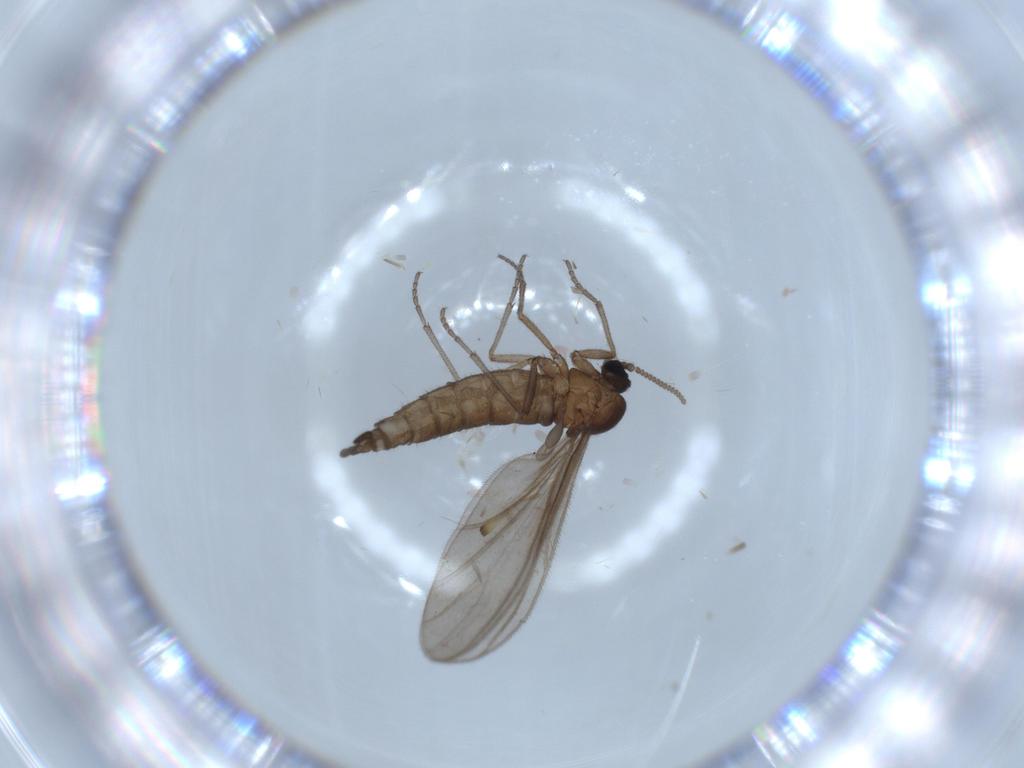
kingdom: Animalia
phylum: Arthropoda
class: Insecta
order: Diptera
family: Sciaridae
